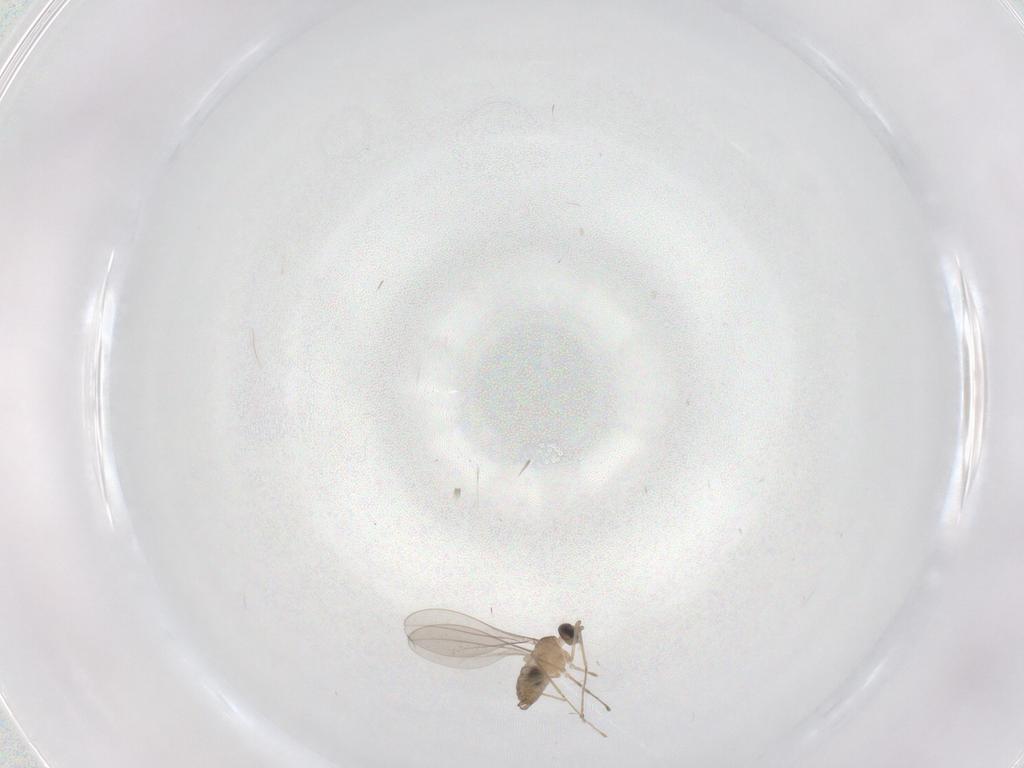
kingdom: Animalia
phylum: Arthropoda
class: Insecta
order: Diptera
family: Cecidomyiidae
